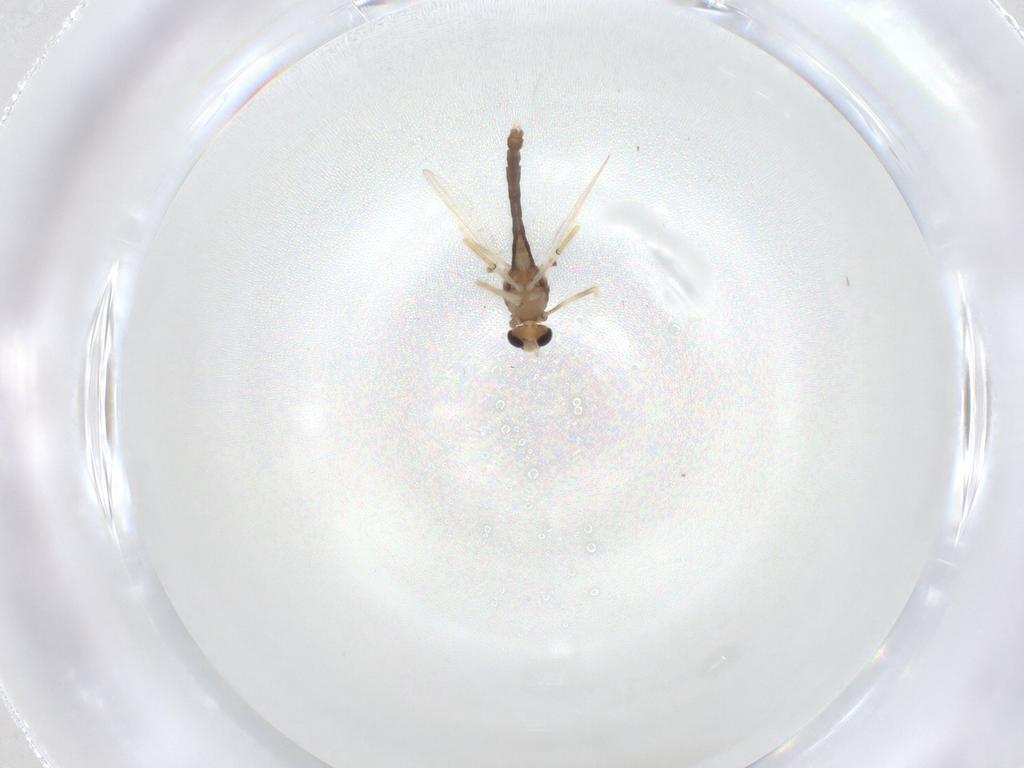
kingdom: Animalia
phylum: Arthropoda
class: Insecta
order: Diptera
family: Chironomidae
